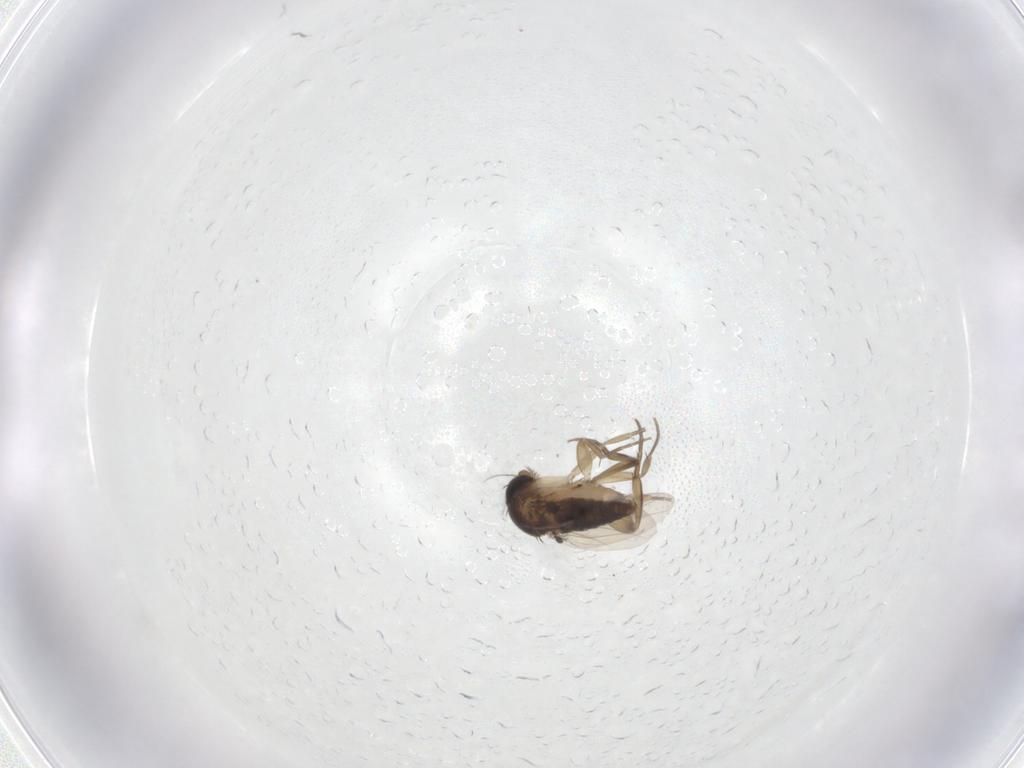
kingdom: Animalia
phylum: Arthropoda
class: Insecta
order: Diptera
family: Phoridae
